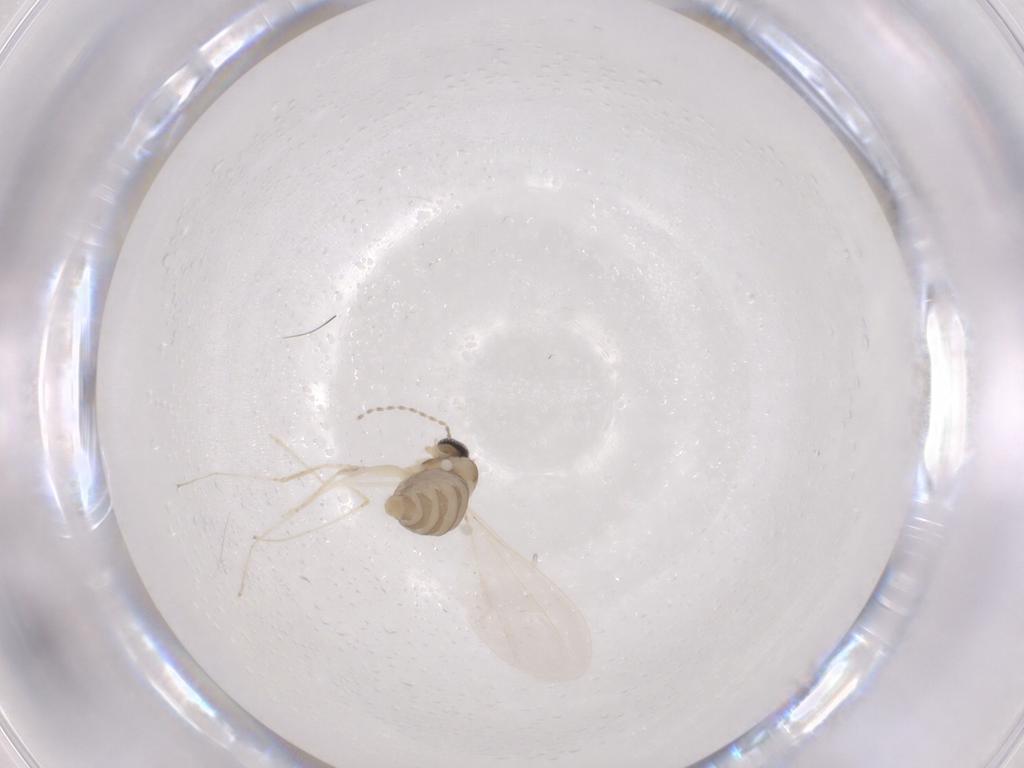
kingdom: Animalia
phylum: Arthropoda
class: Insecta
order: Diptera
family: Cecidomyiidae
